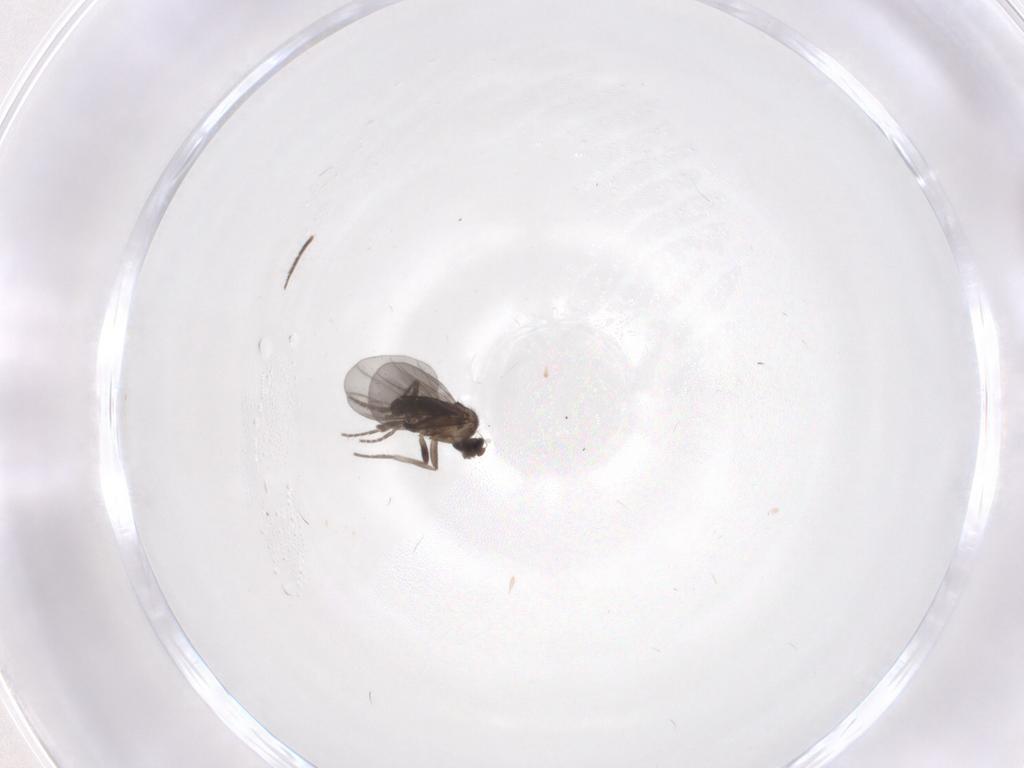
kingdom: Animalia
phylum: Arthropoda
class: Insecta
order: Diptera
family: Phoridae
